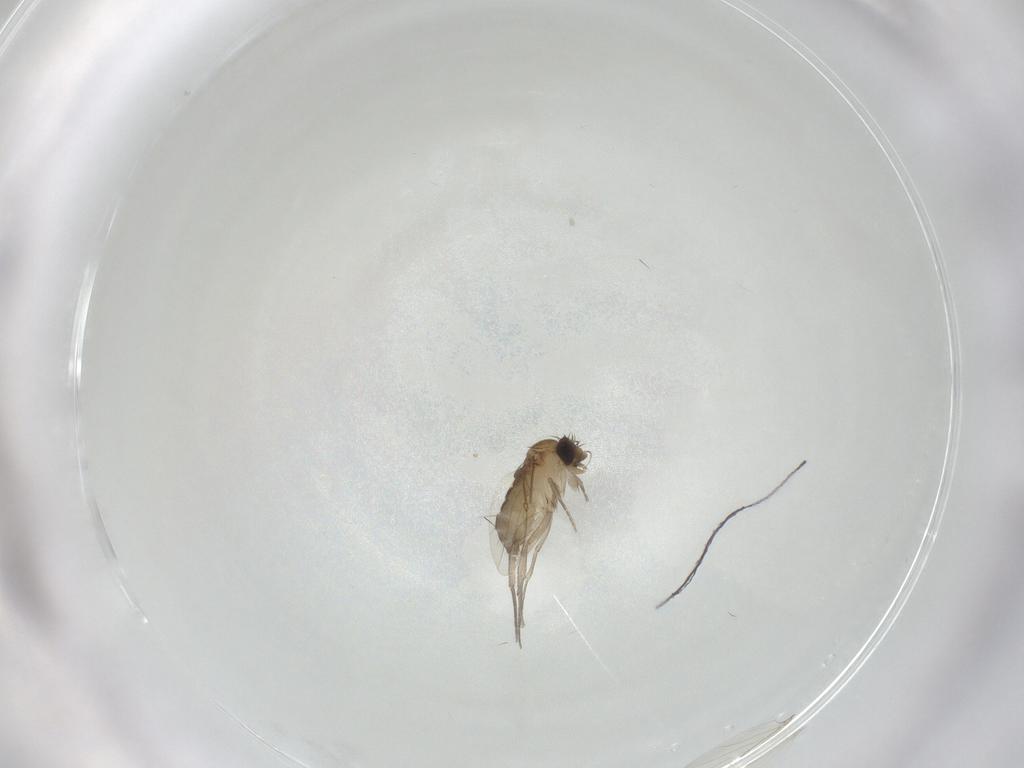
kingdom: Animalia
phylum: Arthropoda
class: Insecta
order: Diptera
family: Phoridae
